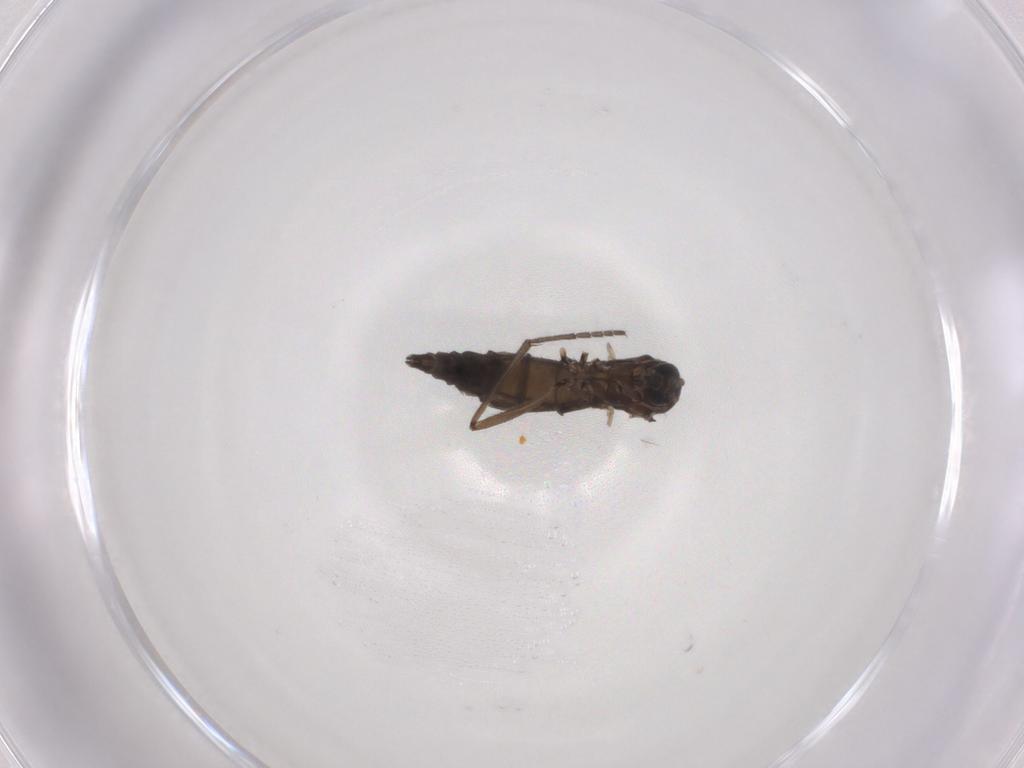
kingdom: Animalia
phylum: Arthropoda
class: Insecta
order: Diptera
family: Sciaridae
